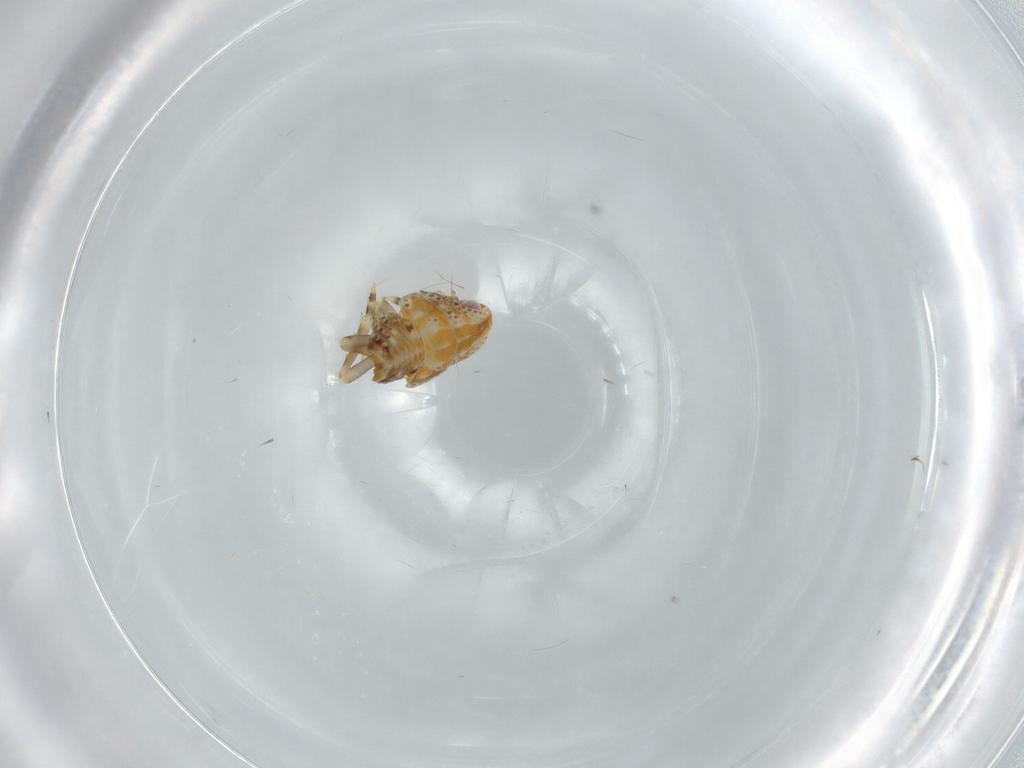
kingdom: Animalia
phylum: Arthropoda
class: Insecta
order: Hemiptera
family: Flatidae
